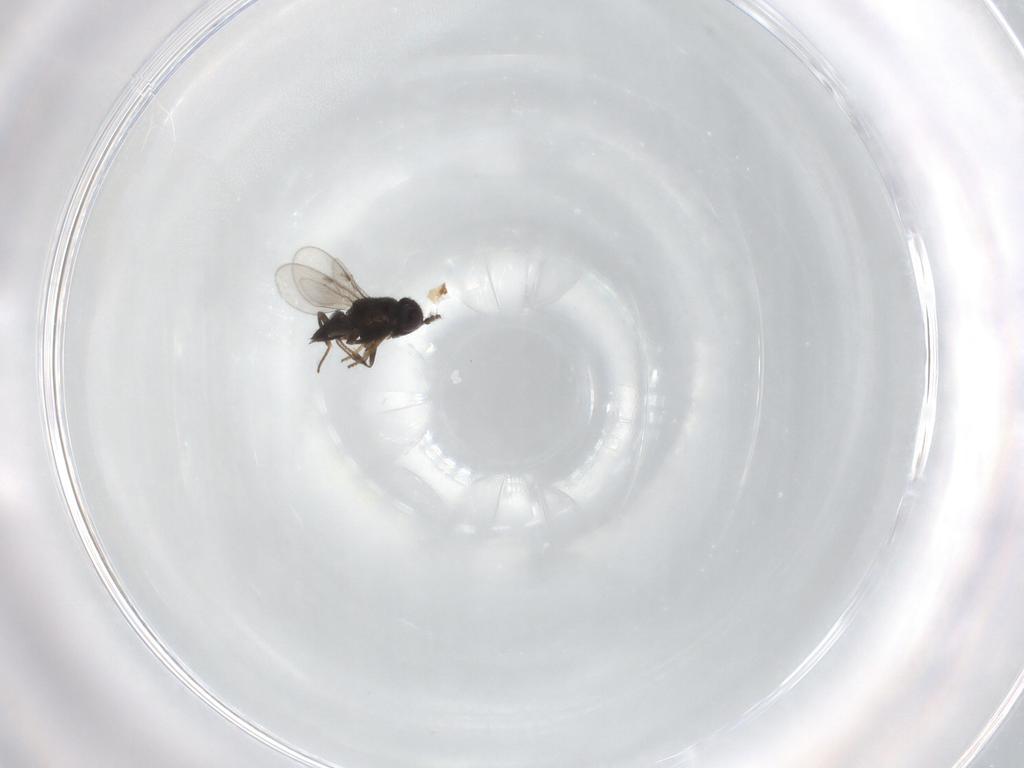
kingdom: Animalia
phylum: Arthropoda
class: Insecta
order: Hymenoptera
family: Encyrtidae
